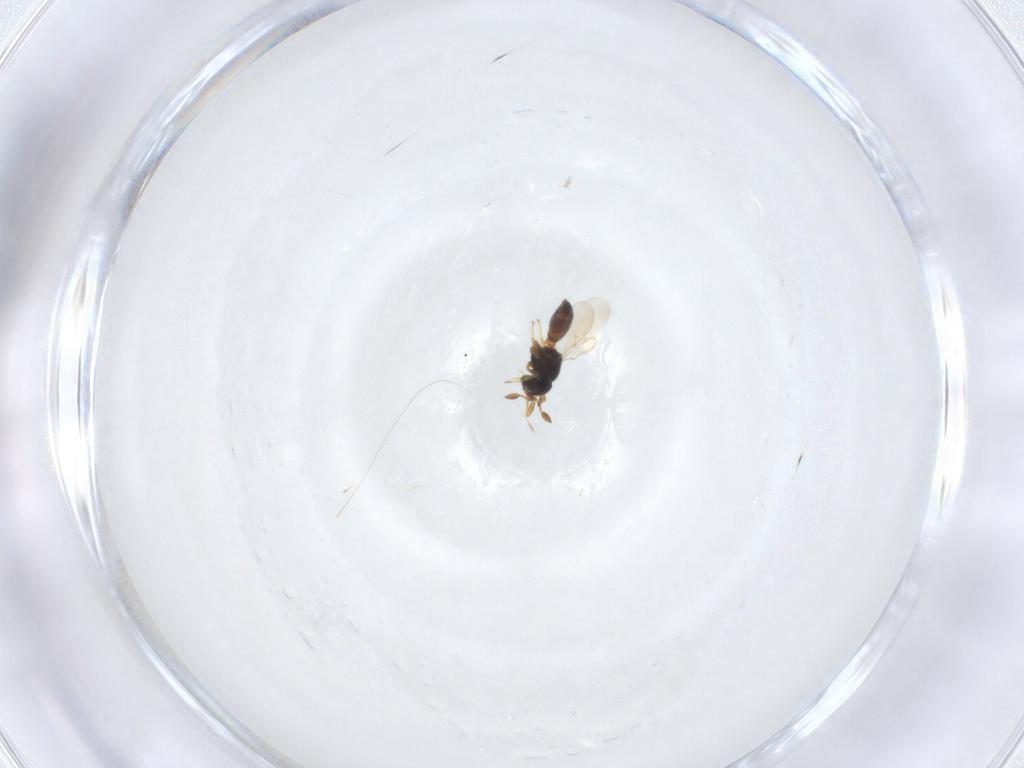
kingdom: Animalia
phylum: Arthropoda
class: Insecta
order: Hymenoptera
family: Scelionidae
